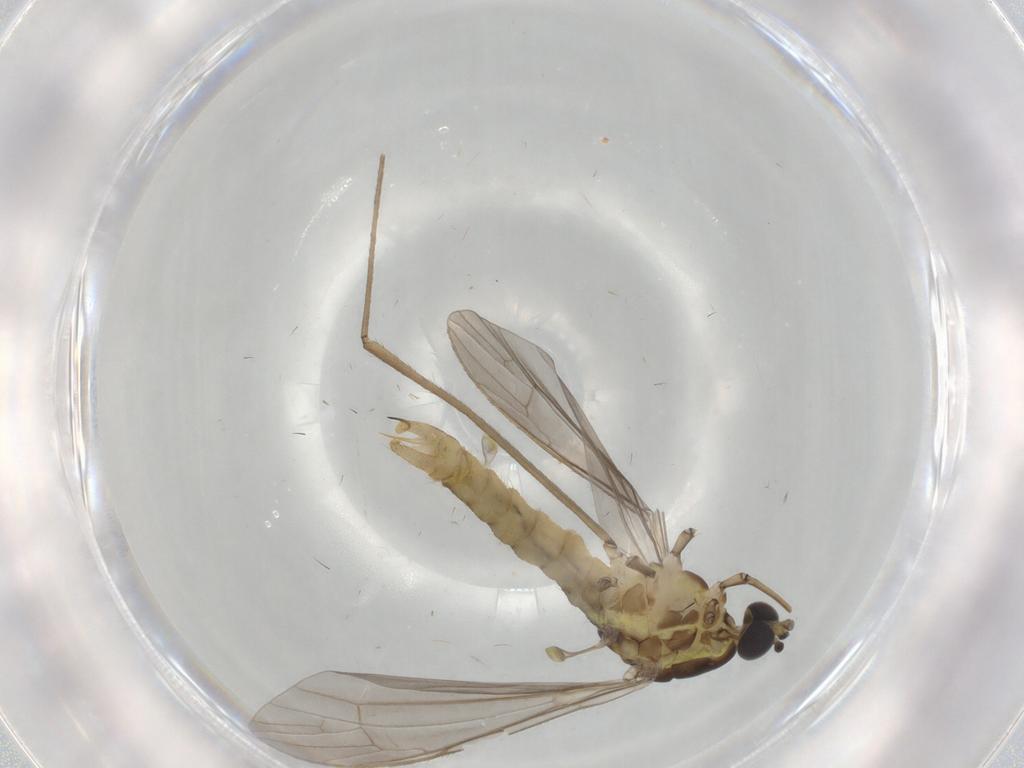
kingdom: Animalia
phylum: Arthropoda
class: Insecta
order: Diptera
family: Limoniidae
